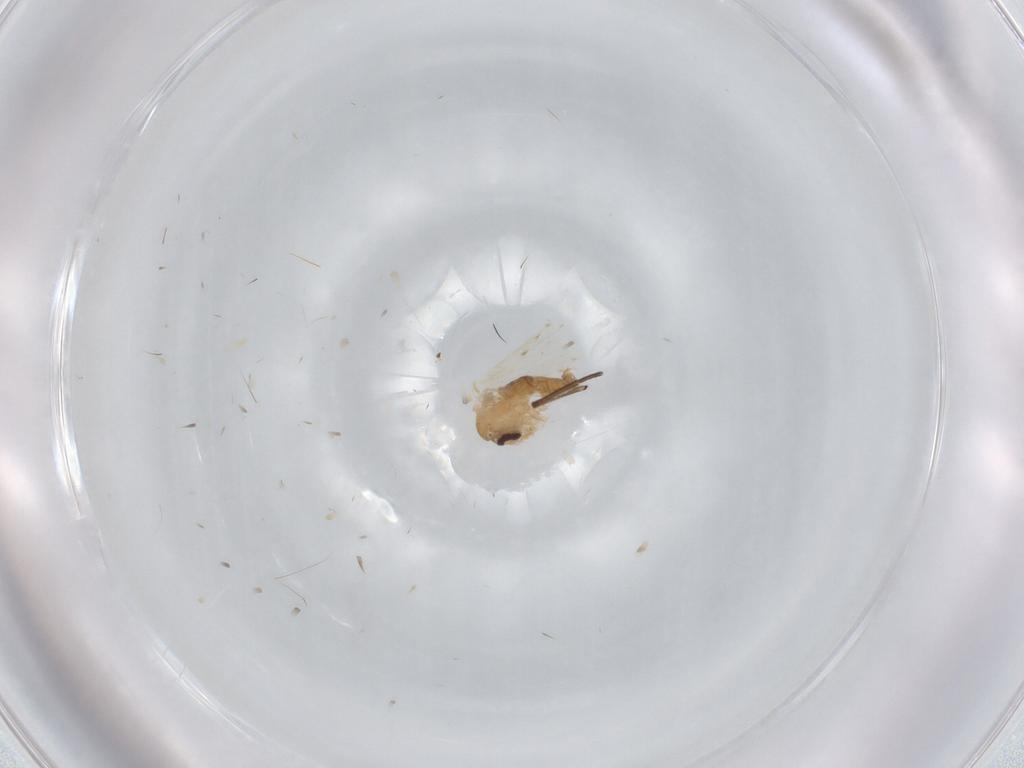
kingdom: Animalia
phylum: Arthropoda
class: Insecta
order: Diptera
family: Psychodidae
